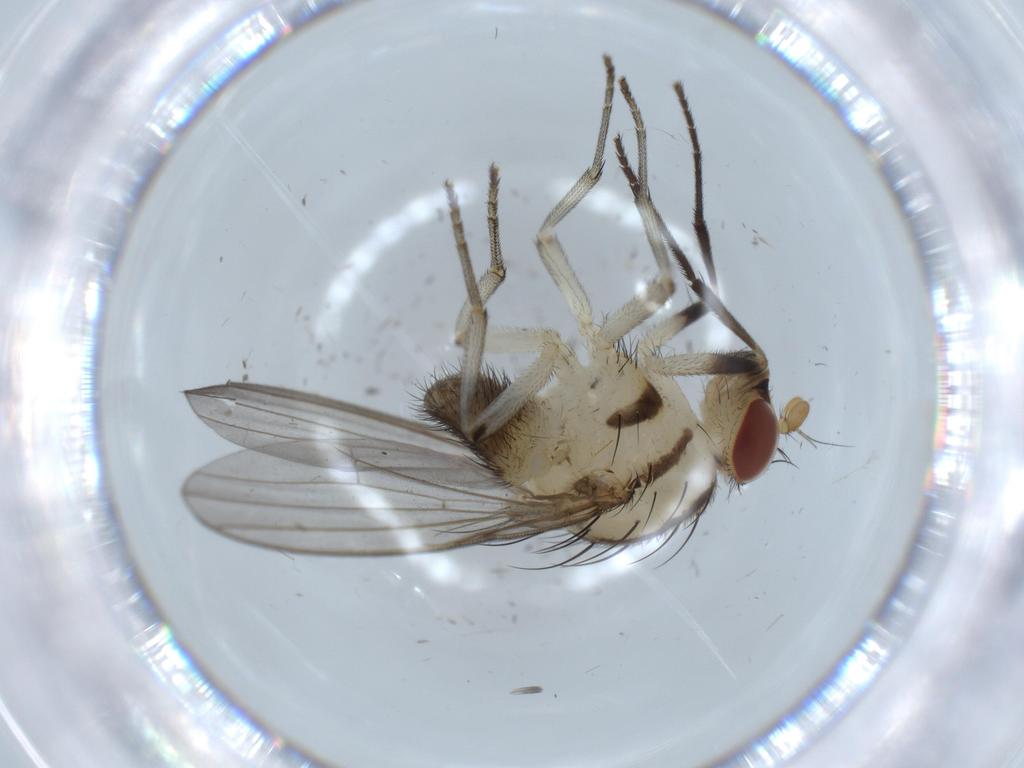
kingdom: Animalia
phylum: Arthropoda
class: Insecta
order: Diptera
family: Lauxaniidae
